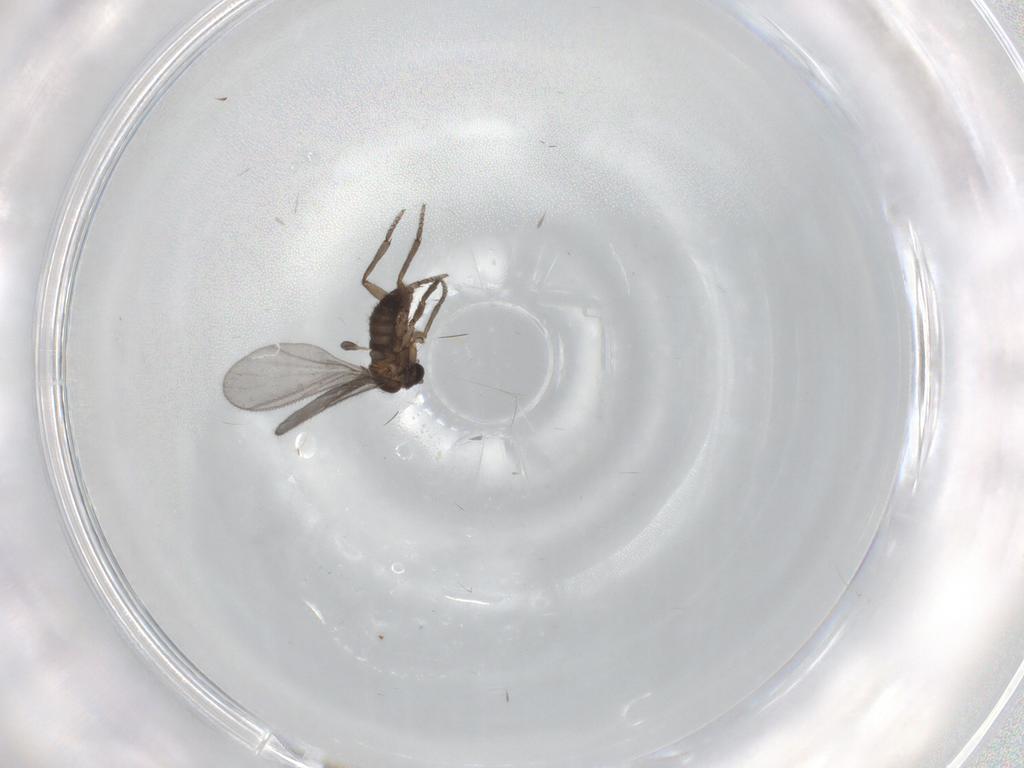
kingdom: Animalia
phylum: Arthropoda
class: Insecta
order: Diptera
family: Sciaridae
